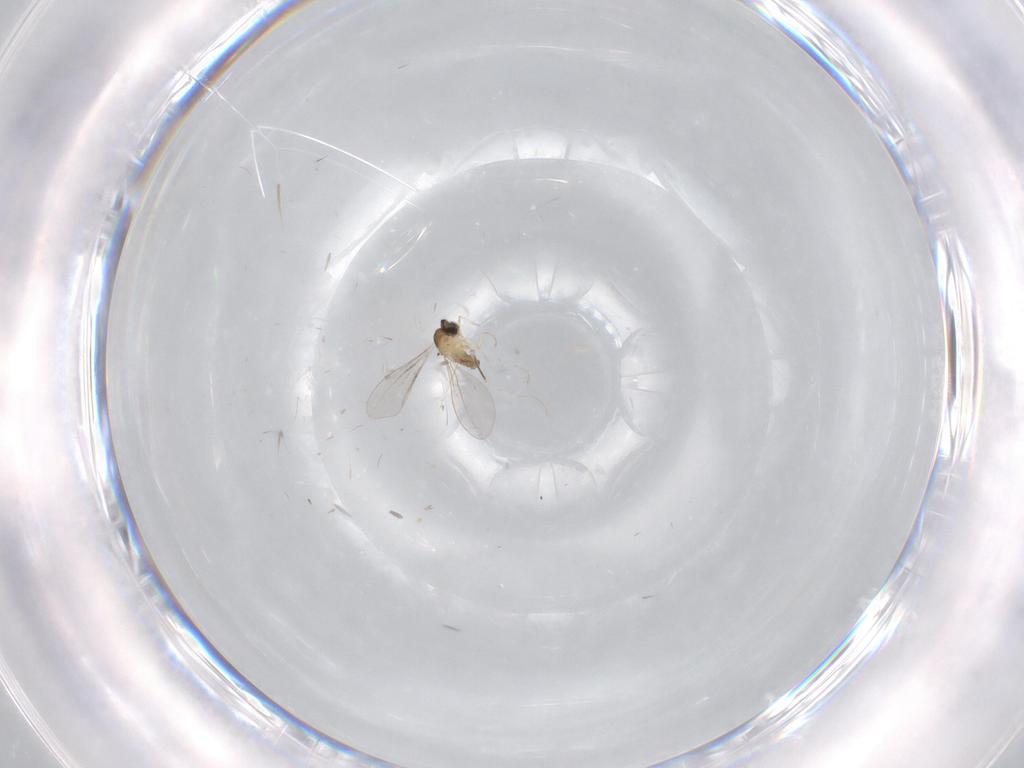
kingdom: Animalia
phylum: Arthropoda
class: Insecta
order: Diptera
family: Cecidomyiidae
